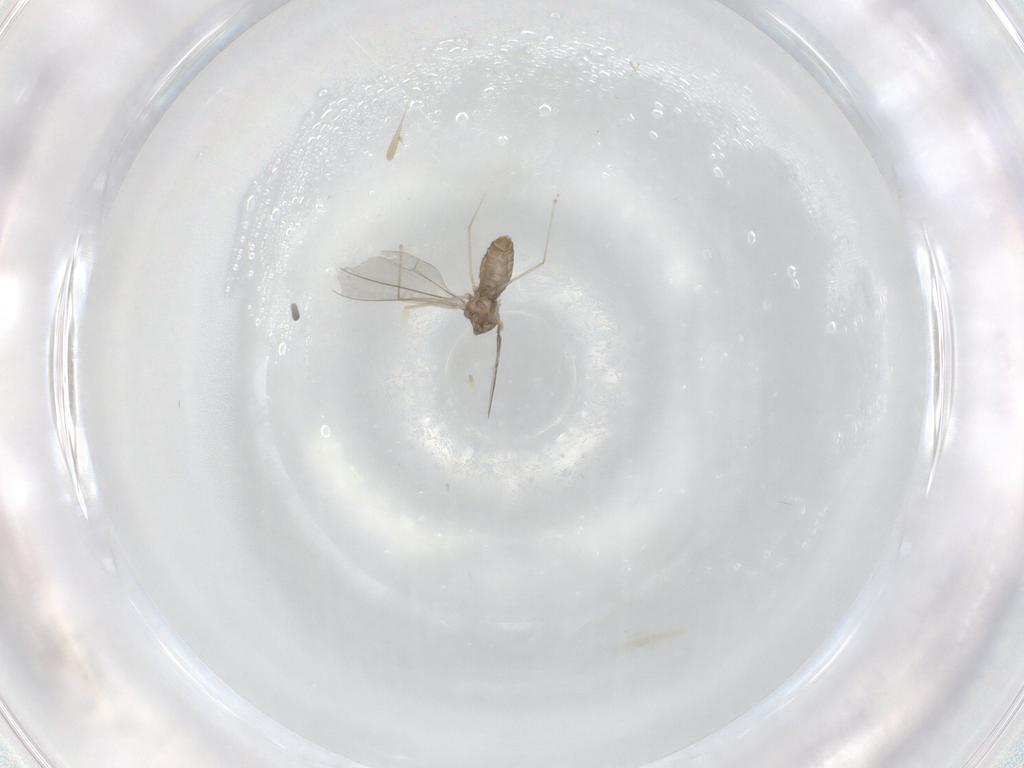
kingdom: Animalia
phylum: Arthropoda
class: Insecta
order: Diptera
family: Cecidomyiidae
